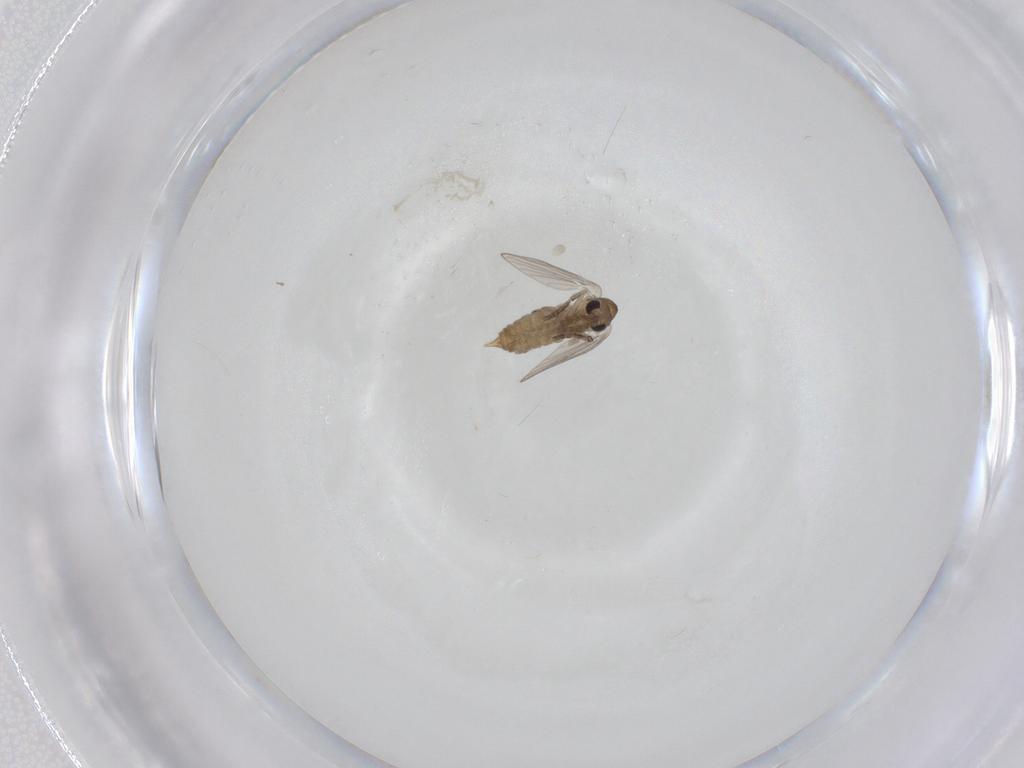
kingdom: Animalia
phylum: Arthropoda
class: Insecta
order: Diptera
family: Psychodidae
